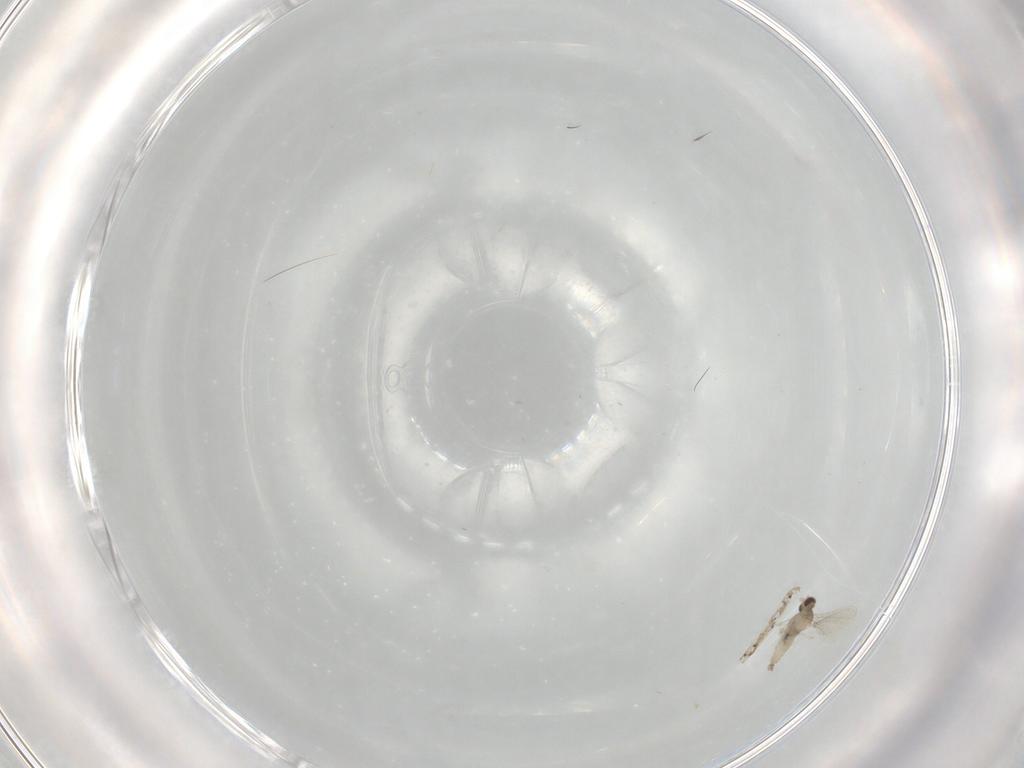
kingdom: Animalia
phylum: Arthropoda
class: Insecta
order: Diptera
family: Cecidomyiidae
